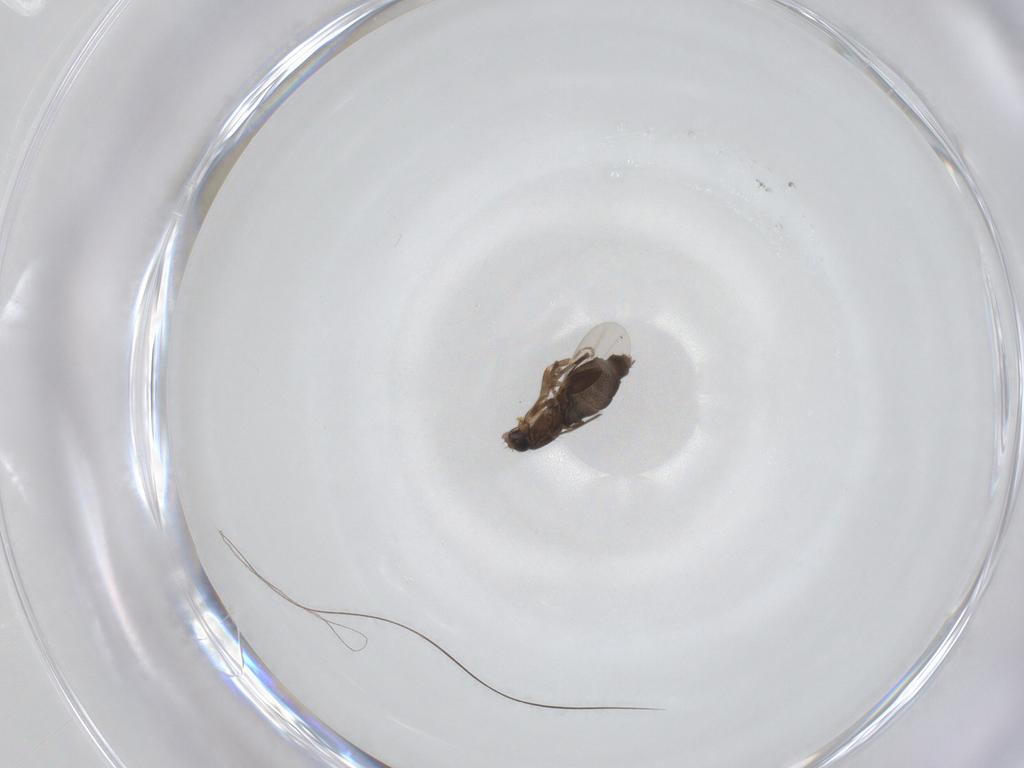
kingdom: Animalia
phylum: Arthropoda
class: Insecta
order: Diptera
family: Phoridae
